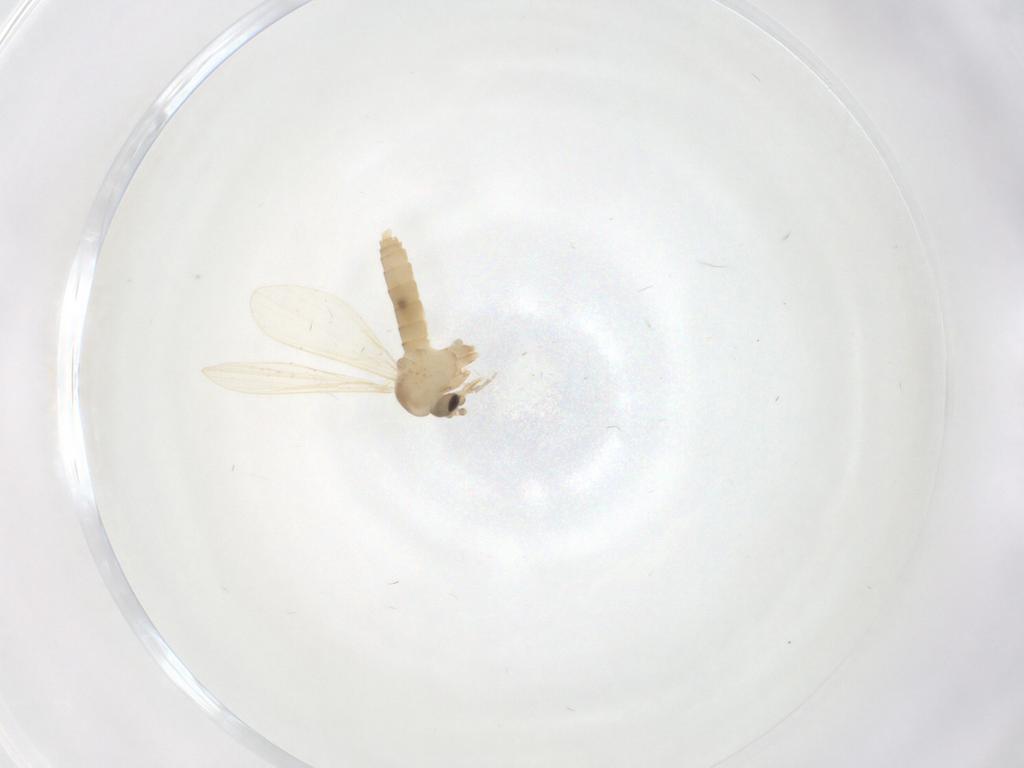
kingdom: Animalia
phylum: Arthropoda
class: Insecta
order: Diptera
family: Psychodidae
